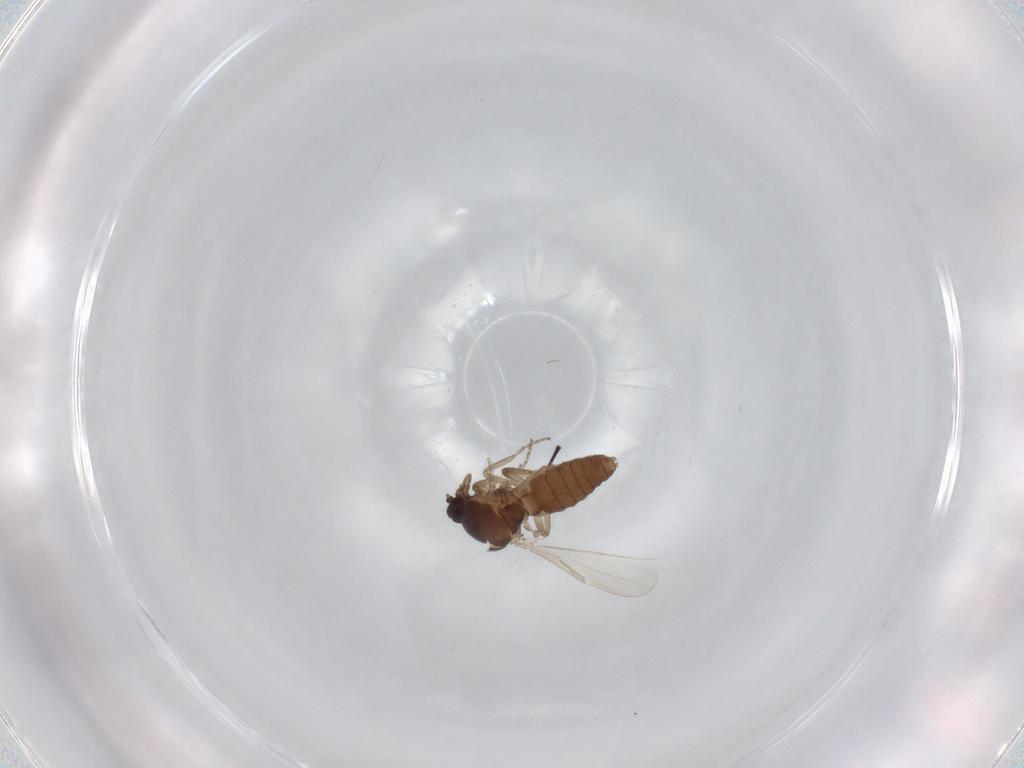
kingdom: Animalia
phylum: Arthropoda
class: Insecta
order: Diptera
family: Ceratopogonidae
